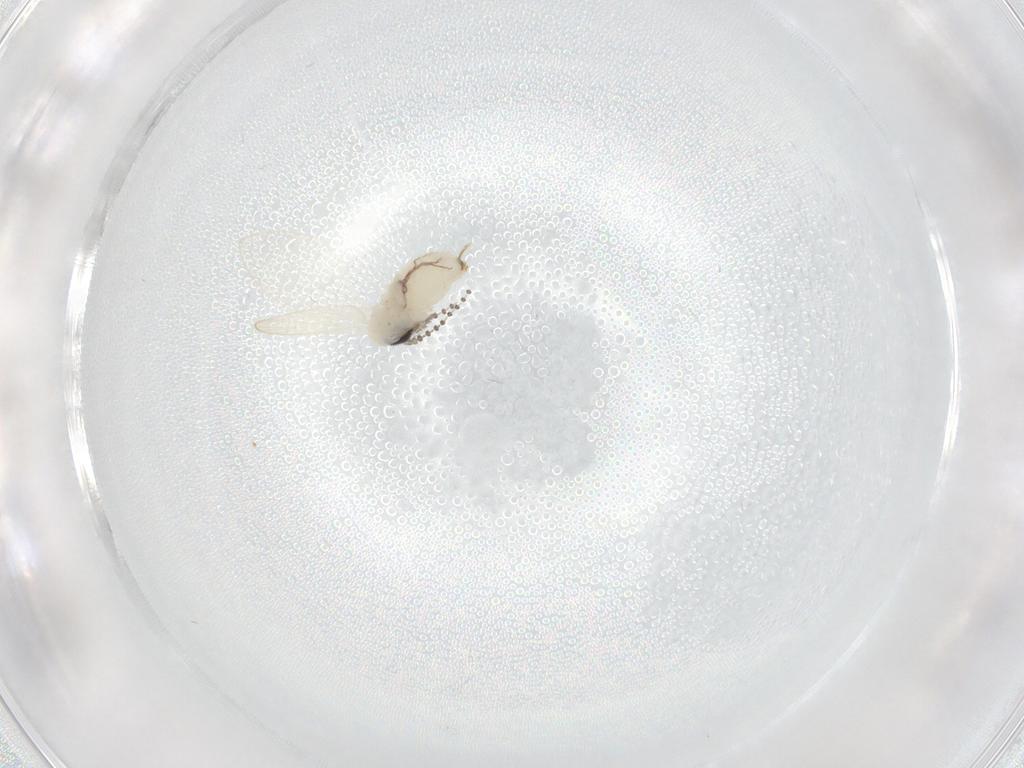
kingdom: Animalia
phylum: Arthropoda
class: Insecta
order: Diptera
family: Psychodidae
